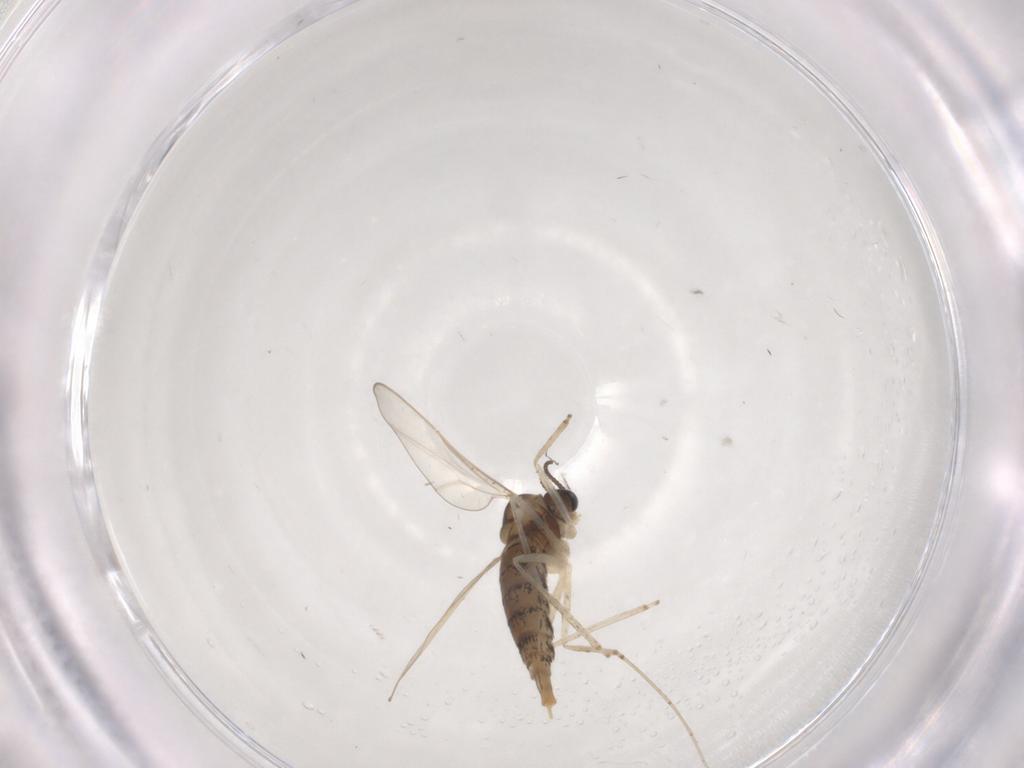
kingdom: Animalia
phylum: Arthropoda
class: Insecta
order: Diptera
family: Cecidomyiidae
